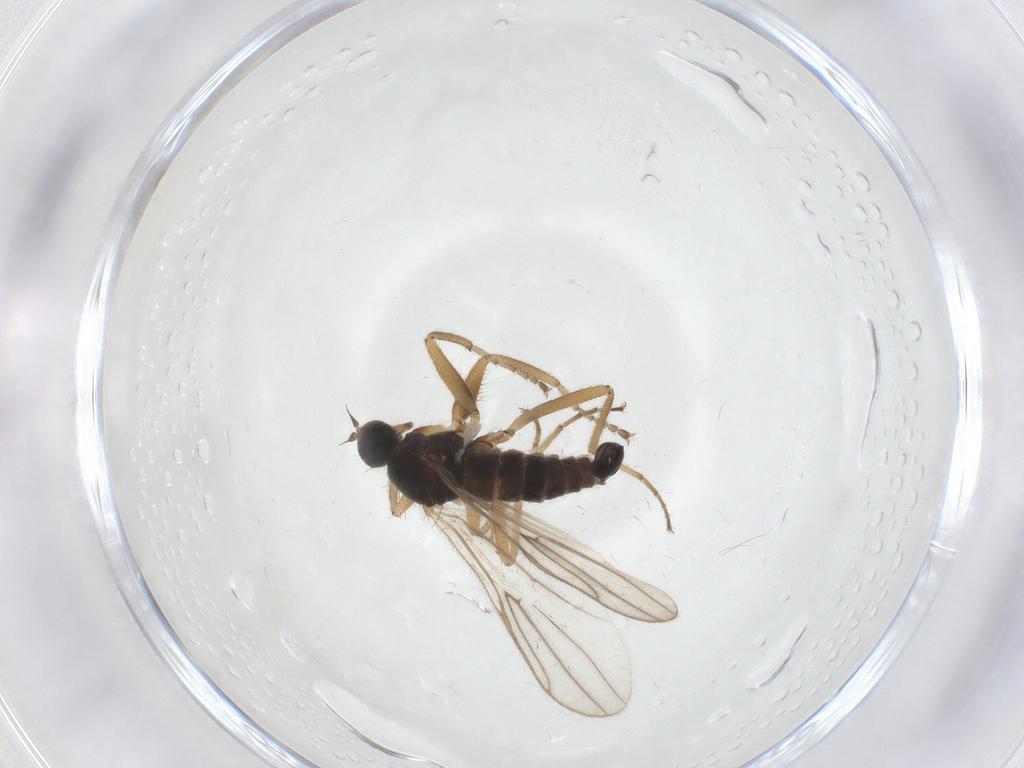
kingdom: Animalia
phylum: Arthropoda
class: Insecta
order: Diptera
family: Hybotidae
